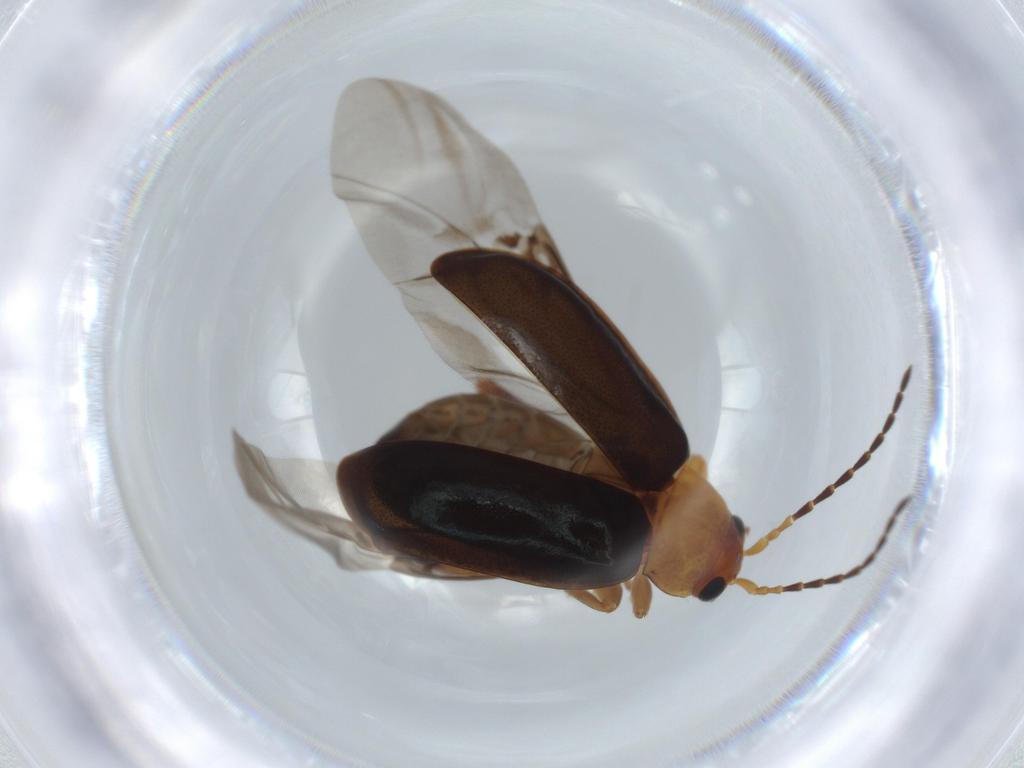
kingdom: Animalia
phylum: Arthropoda
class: Insecta
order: Coleoptera
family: Chrysomelidae
